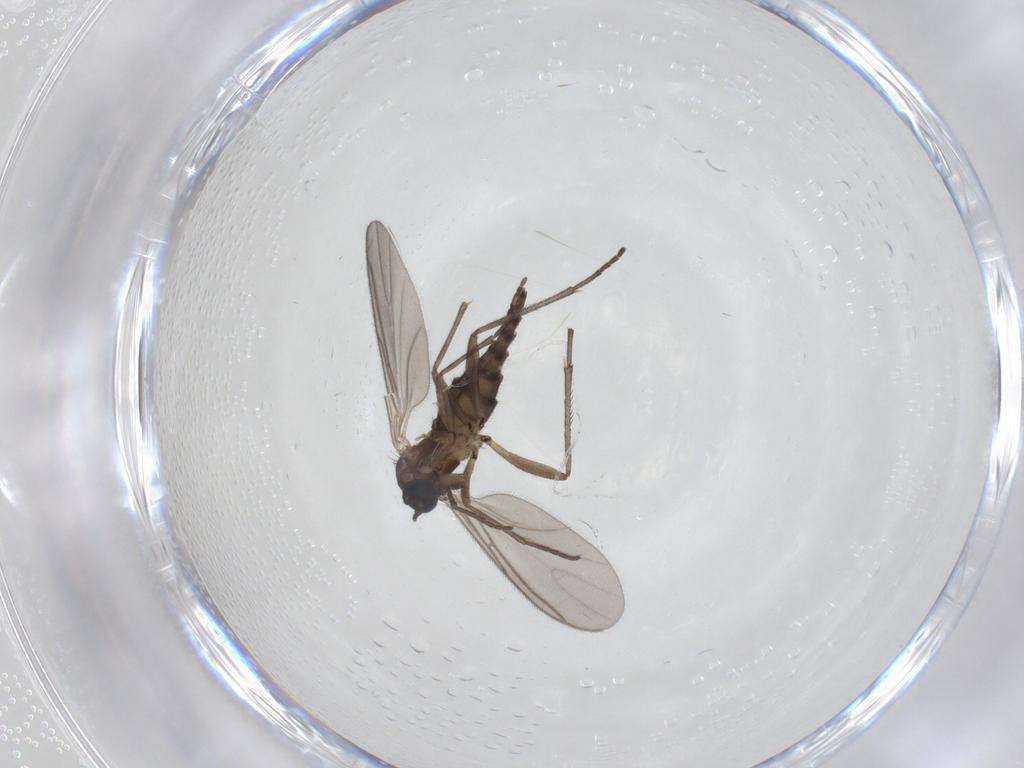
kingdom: Animalia
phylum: Arthropoda
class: Insecta
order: Diptera
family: Sciaridae
